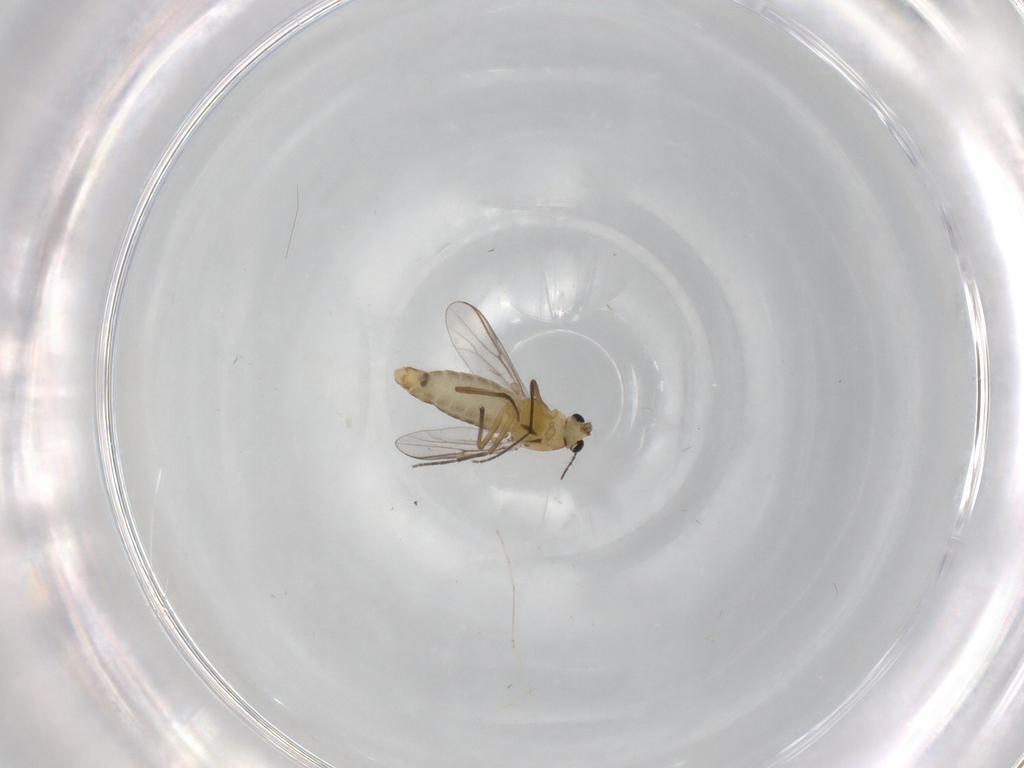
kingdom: Animalia
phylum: Arthropoda
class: Insecta
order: Diptera
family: Cecidomyiidae
